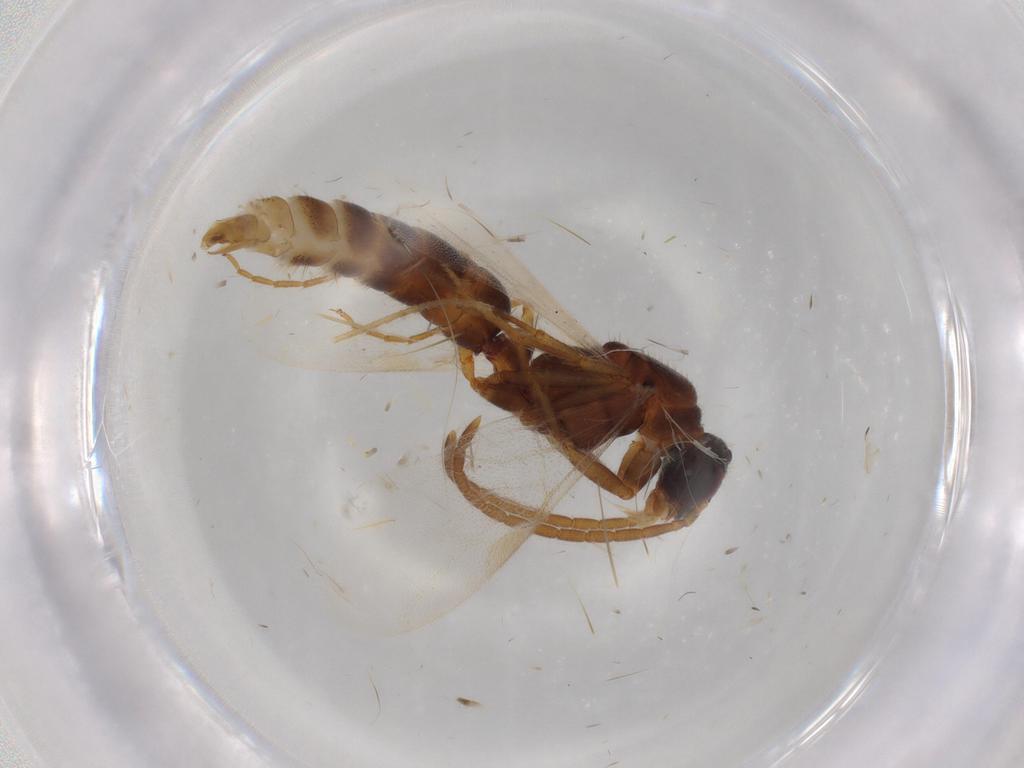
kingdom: Animalia
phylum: Arthropoda
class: Insecta
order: Hymenoptera
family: Formicidae
